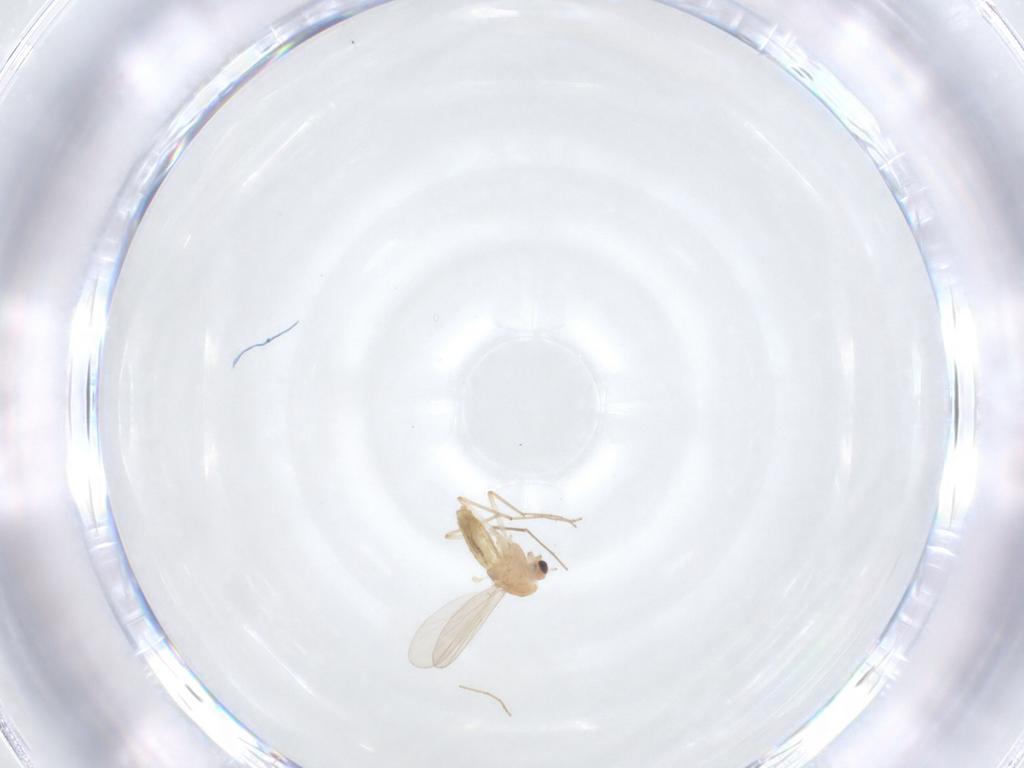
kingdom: Animalia
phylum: Arthropoda
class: Insecta
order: Diptera
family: Chironomidae
